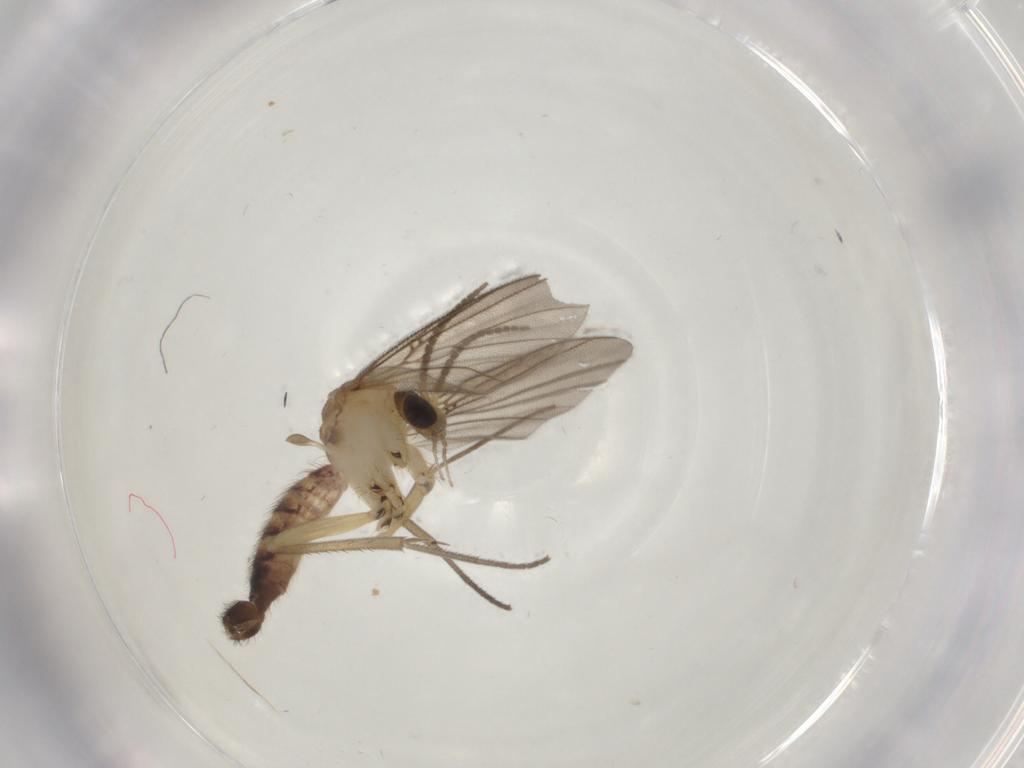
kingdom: Animalia
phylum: Arthropoda
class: Insecta
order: Diptera
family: Mycetophilidae
